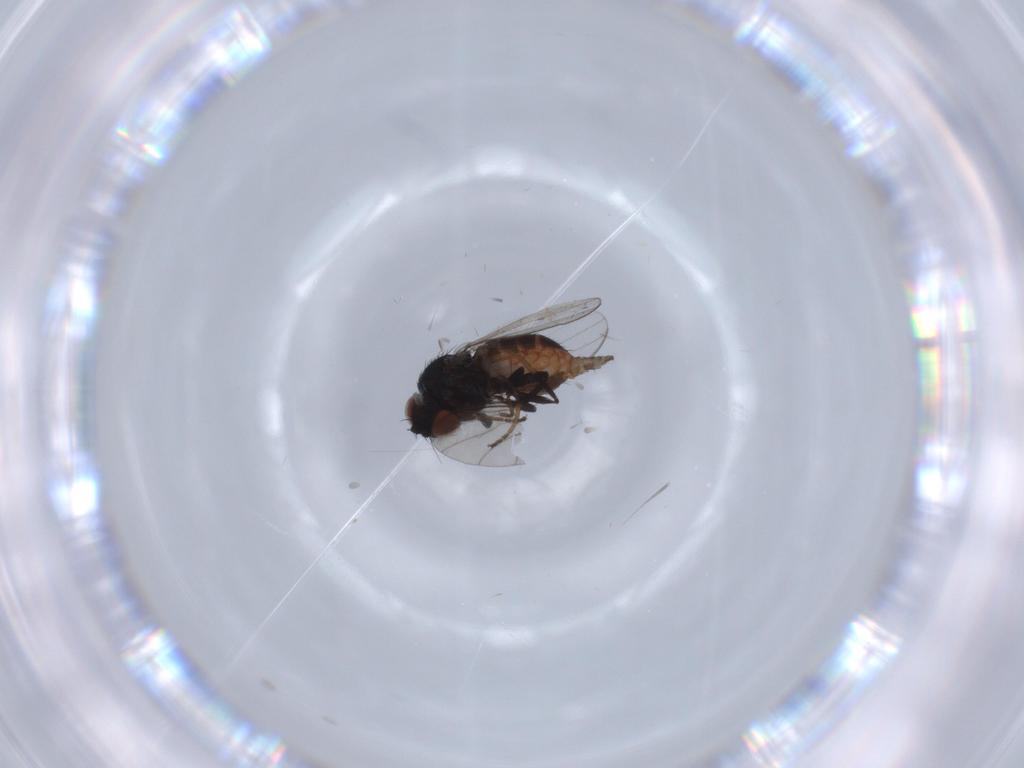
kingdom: Animalia
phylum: Arthropoda
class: Insecta
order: Diptera
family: Milichiidae
